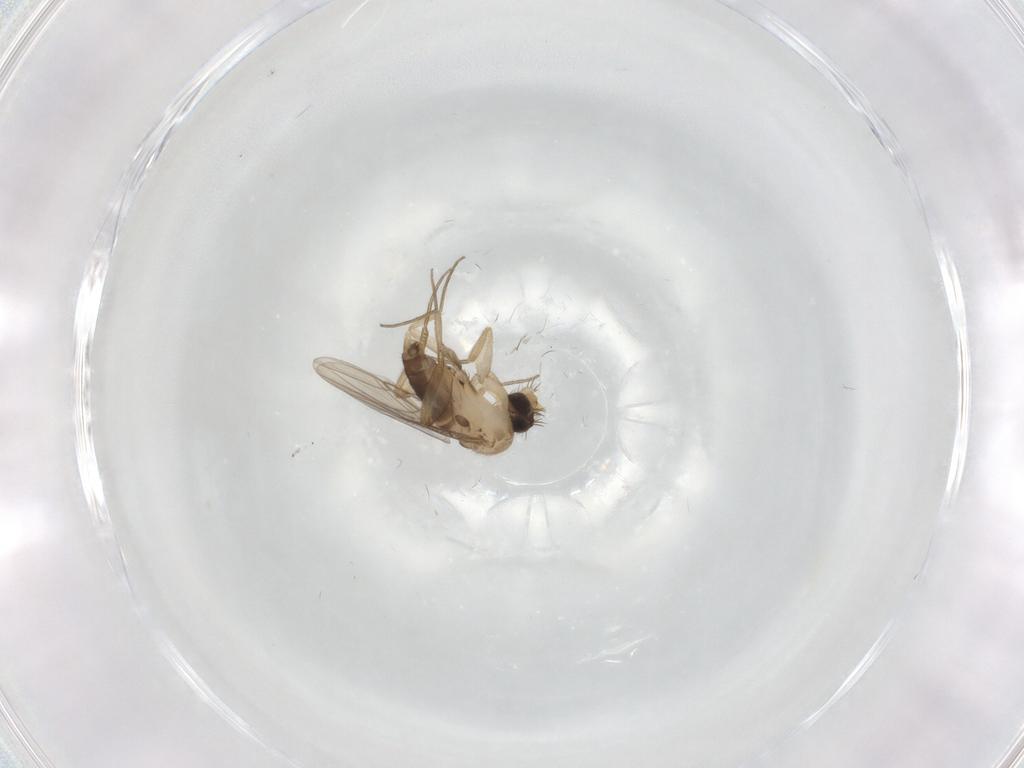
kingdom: Animalia
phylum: Arthropoda
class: Insecta
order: Diptera
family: Phoridae
